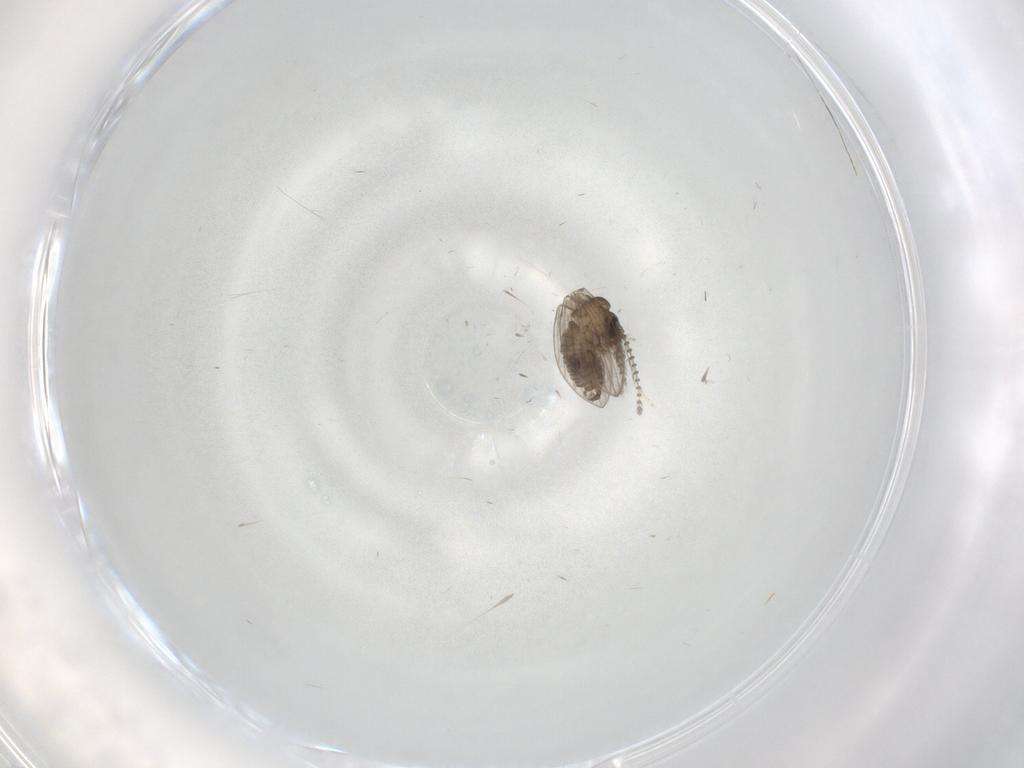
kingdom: Animalia
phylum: Arthropoda
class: Insecta
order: Diptera
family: Psychodidae
